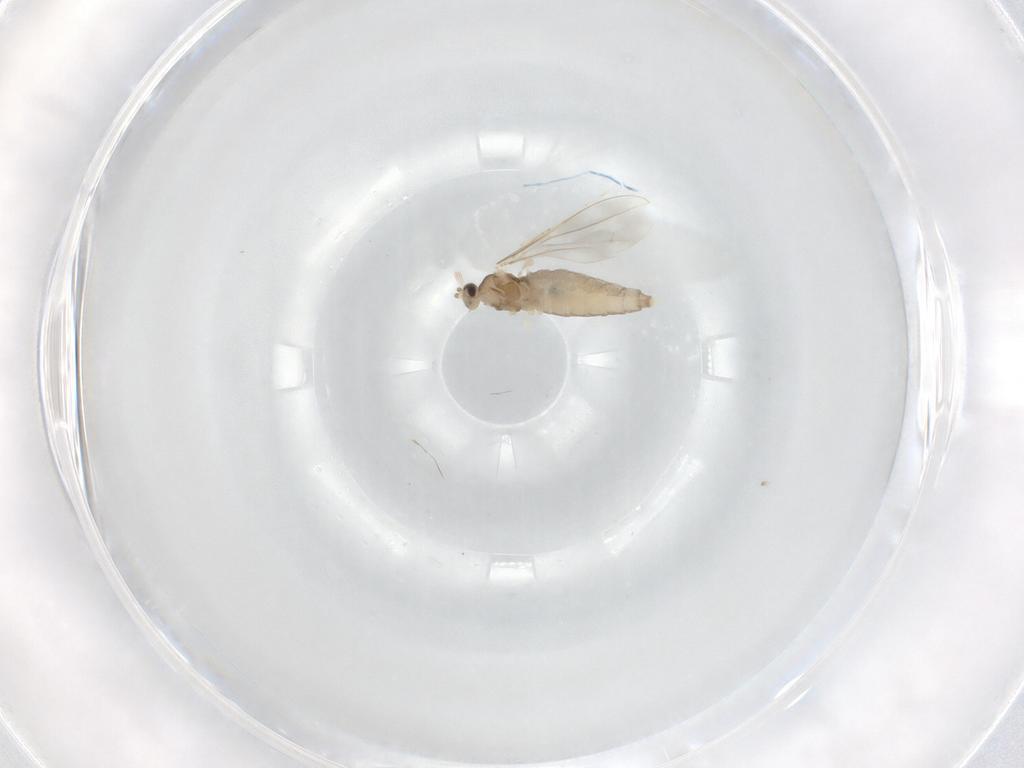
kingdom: Animalia
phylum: Arthropoda
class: Insecta
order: Diptera
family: Cecidomyiidae
